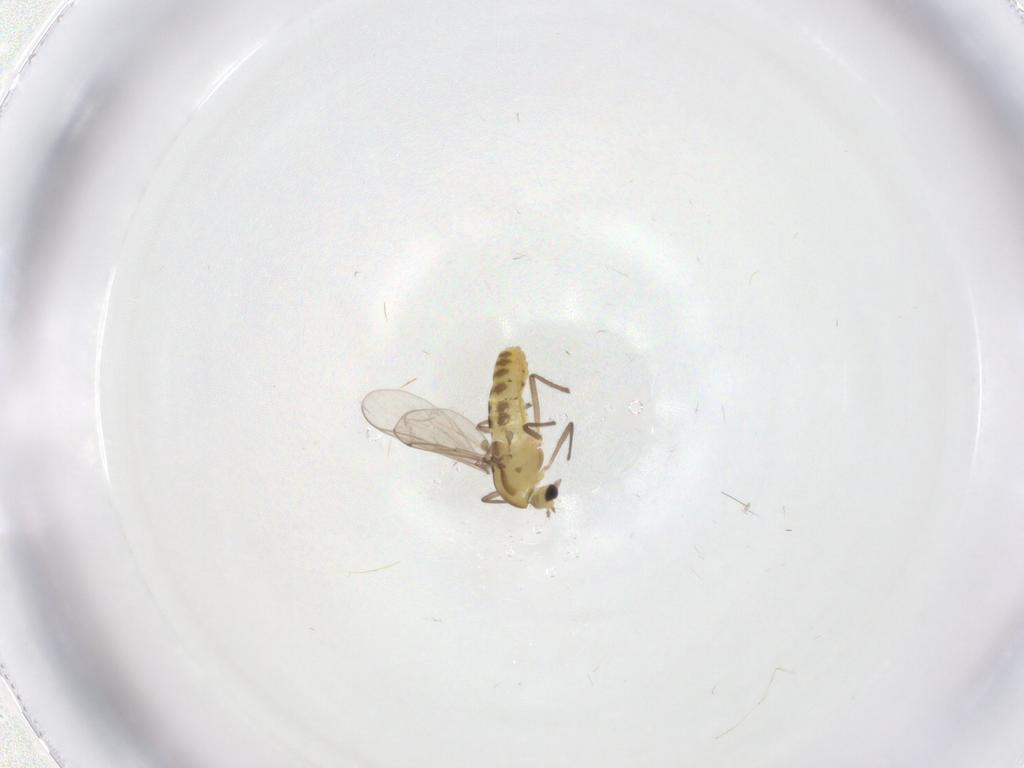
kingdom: Animalia
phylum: Arthropoda
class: Insecta
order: Diptera
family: Chironomidae
